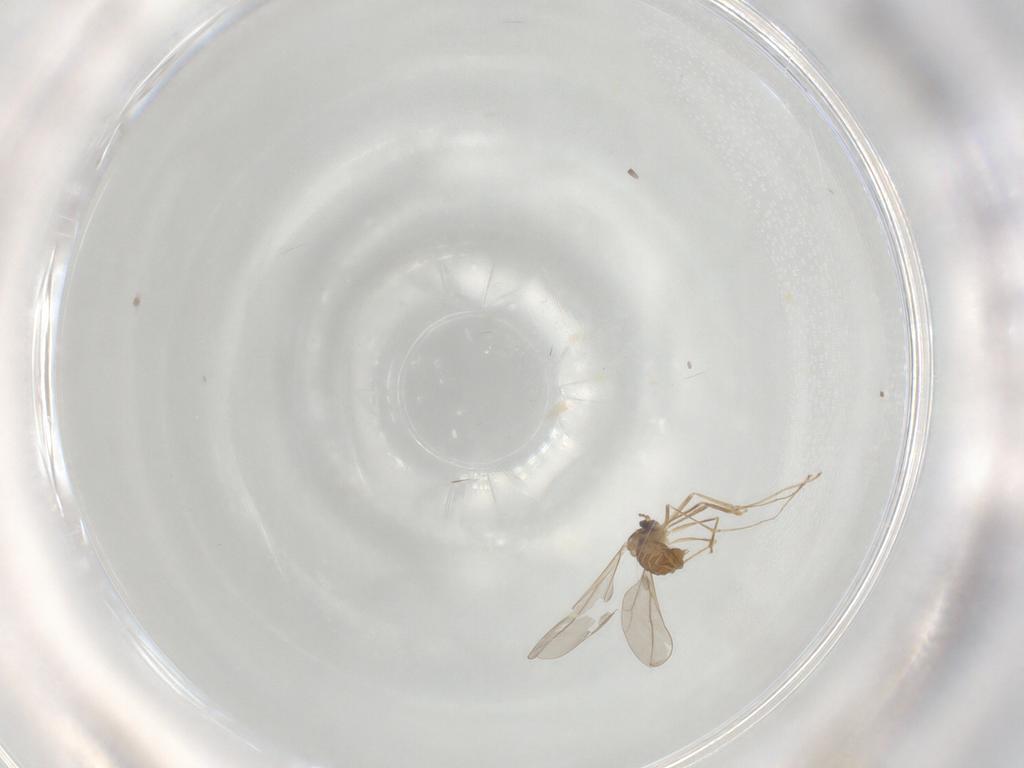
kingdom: Animalia
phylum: Arthropoda
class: Insecta
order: Diptera
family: Cecidomyiidae
